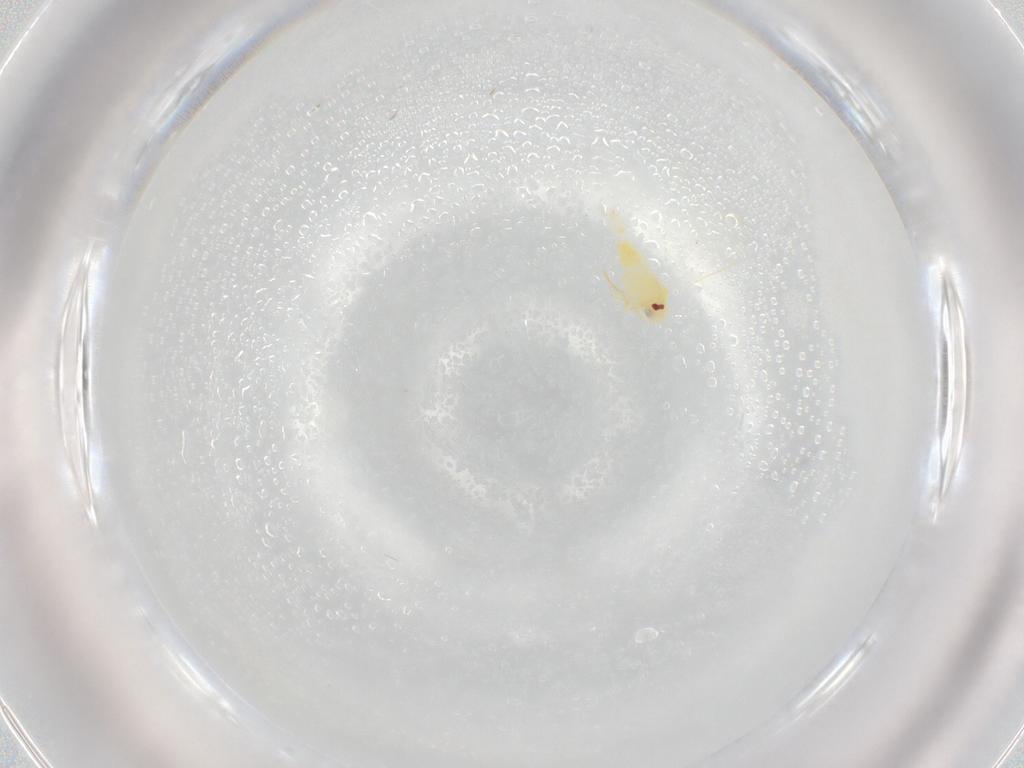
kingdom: Animalia
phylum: Arthropoda
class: Insecta
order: Hemiptera
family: Aleyrodidae
